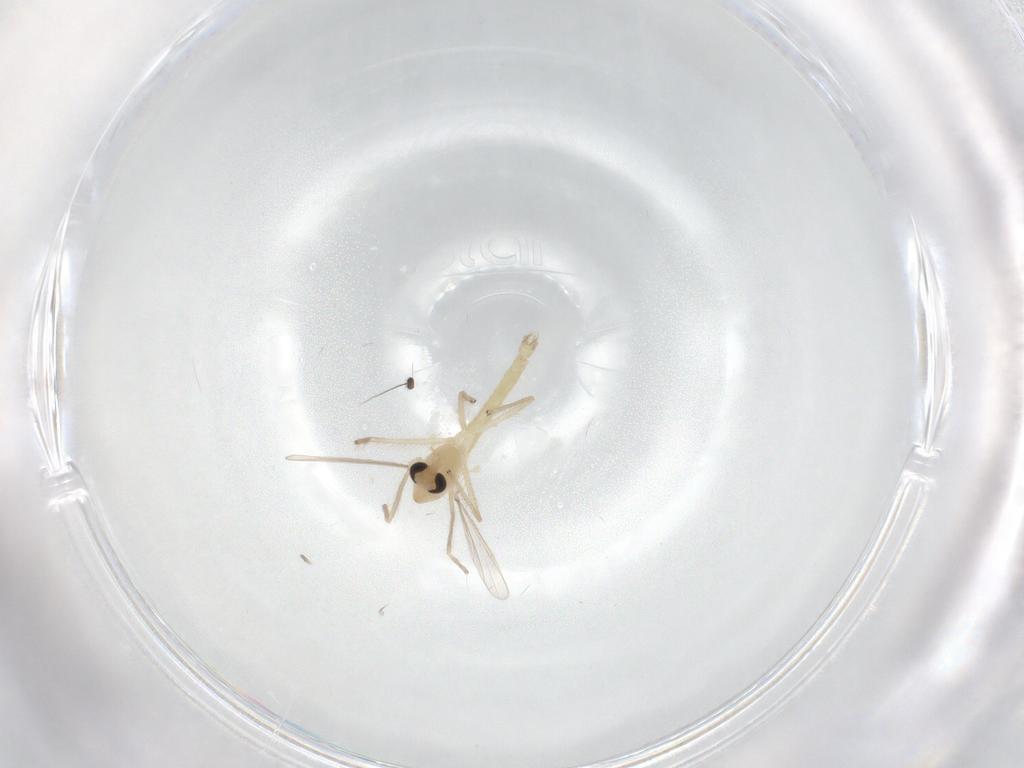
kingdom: Animalia
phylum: Arthropoda
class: Insecta
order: Diptera
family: Chironomidae
